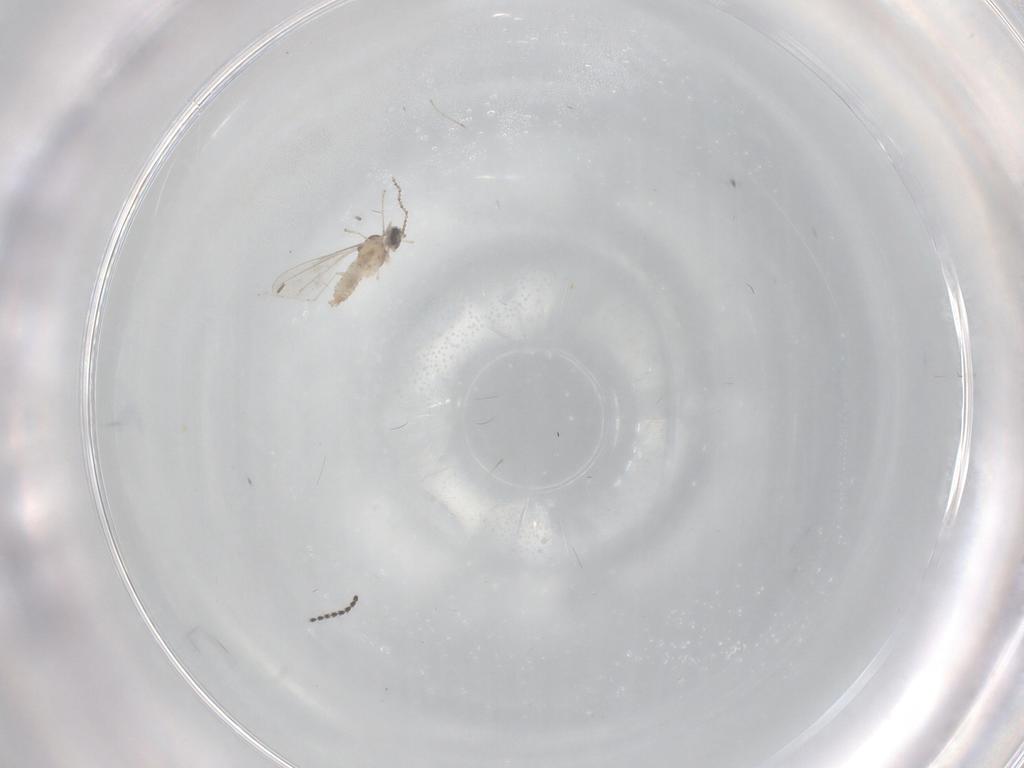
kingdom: Animalia
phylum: Arthropoda
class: Insecta
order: Diptera
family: Cecidomyiidae
